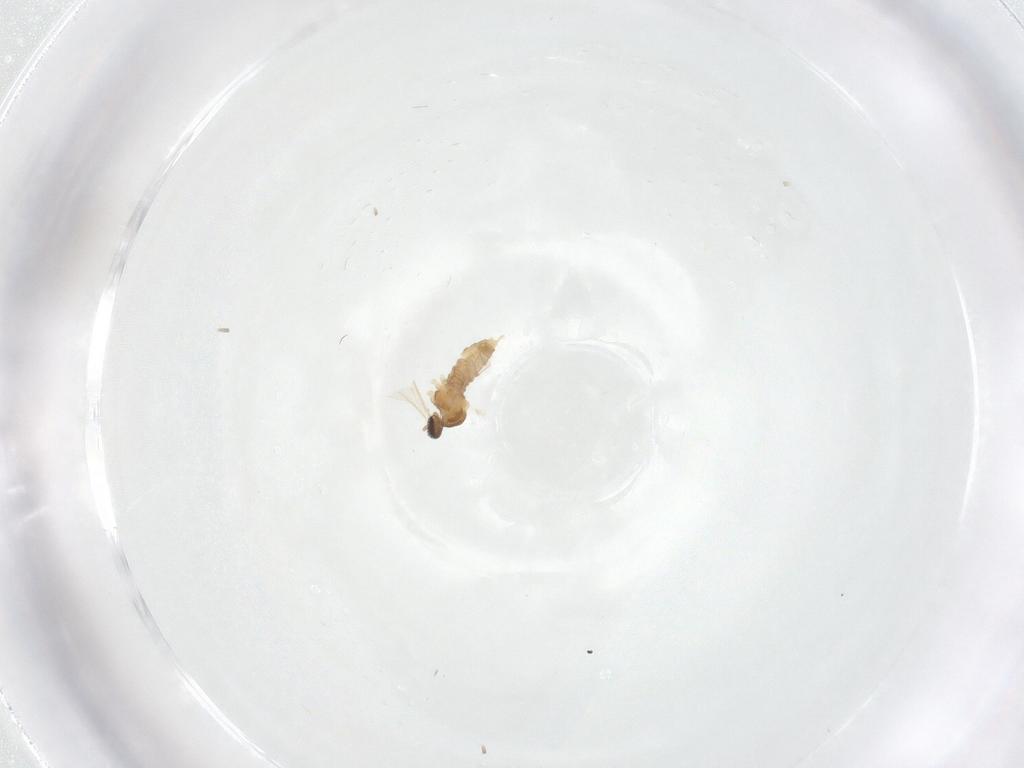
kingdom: Animalia
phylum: Arthropoda
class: Insecta
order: Diptera
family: Cecidomyiidae
